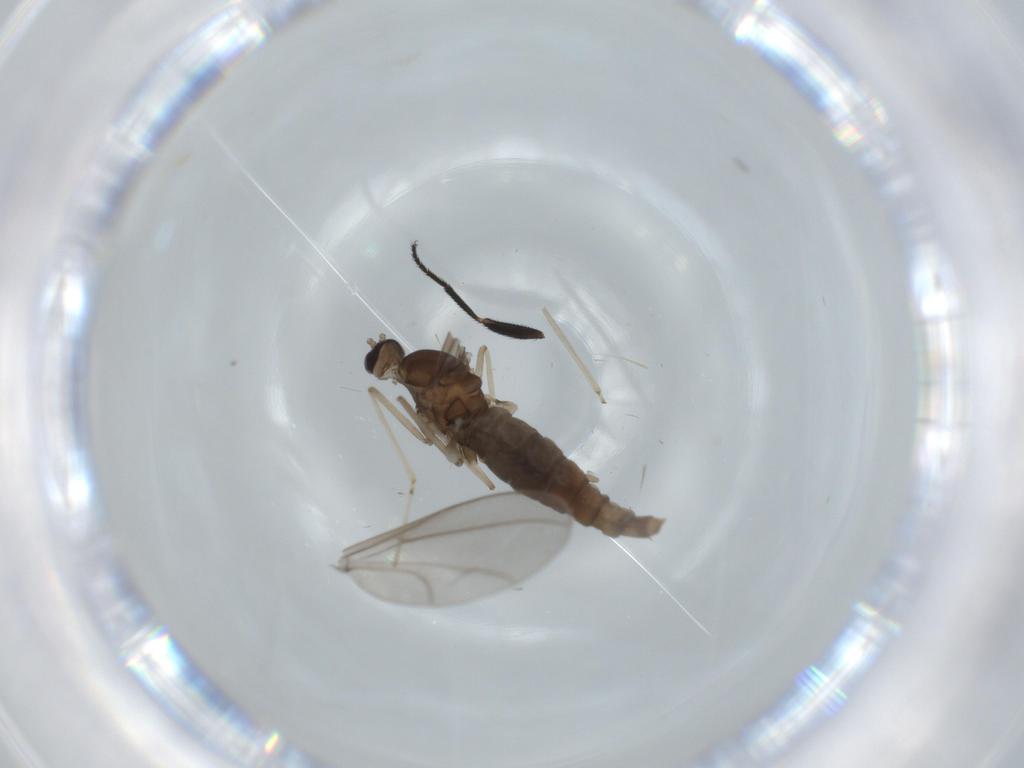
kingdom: Animalia
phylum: Arthropoda
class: Insecta
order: Diptera
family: Cecidomyiidae
